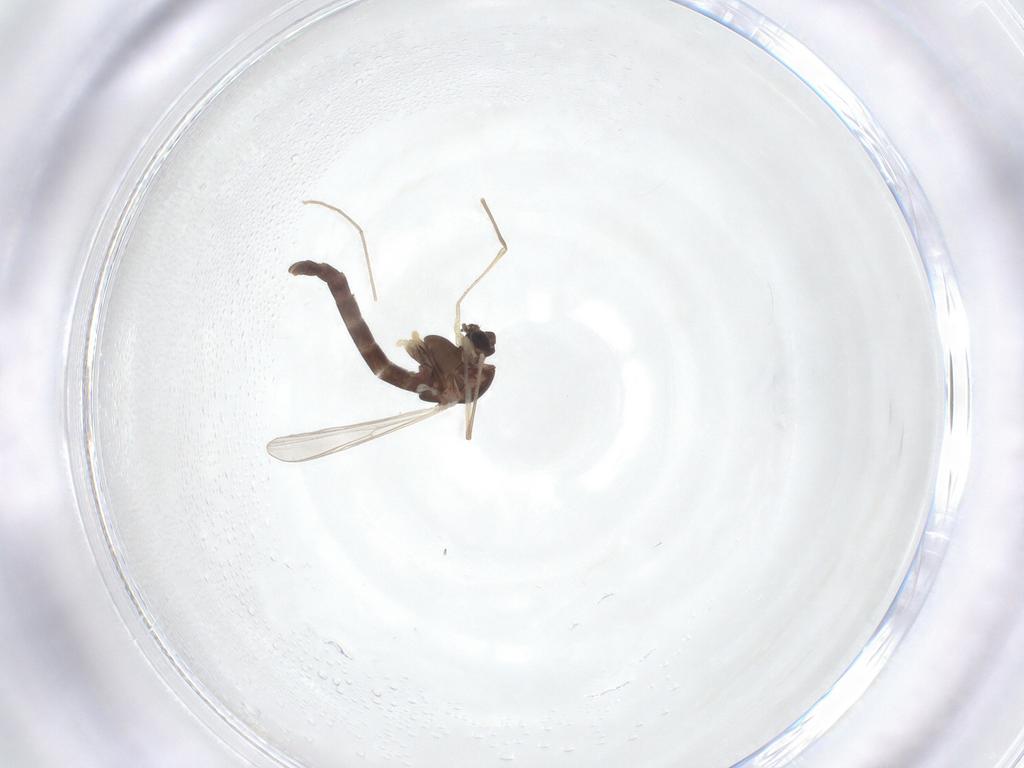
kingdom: Animalia
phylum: Arthropoda
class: Insecta
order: Diptera
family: Chironomidae
